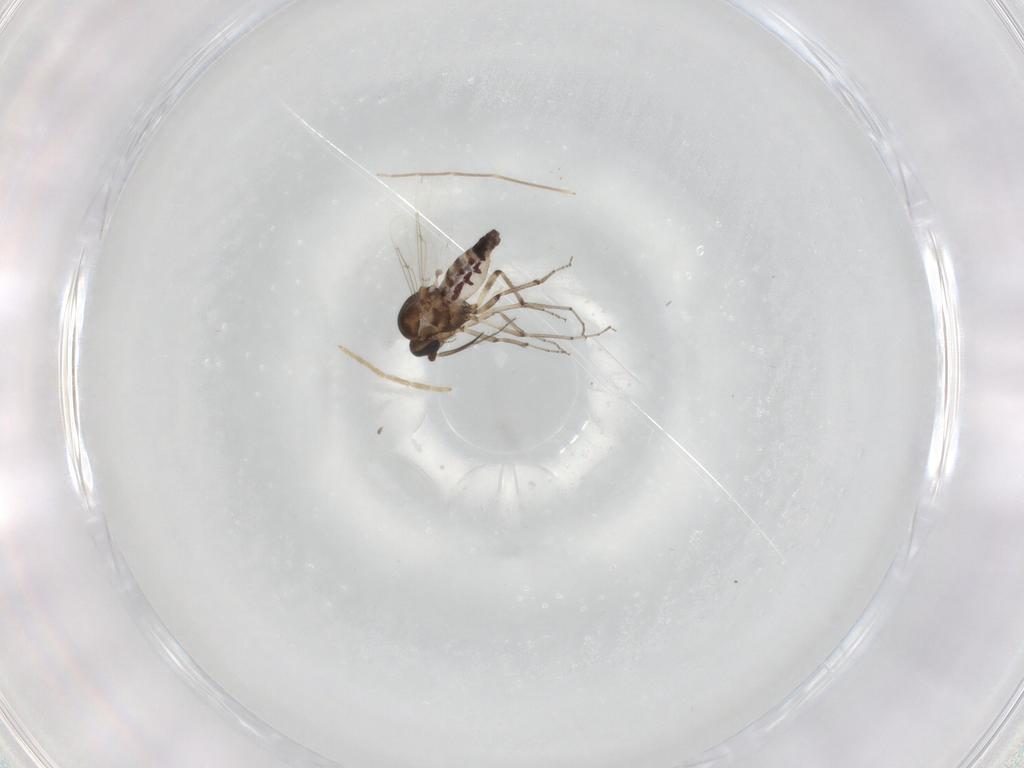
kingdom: Animalia
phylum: Arthropoda
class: Insecta
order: Diptera
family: Ceratopogonidae
